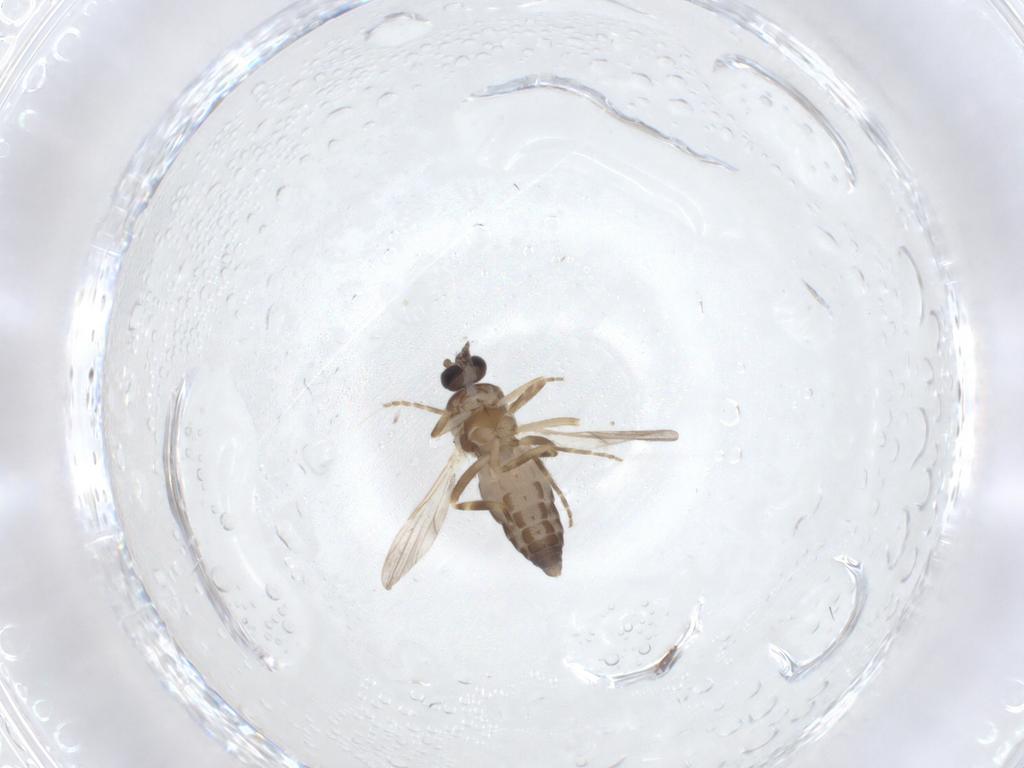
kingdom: Animalia
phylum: Arthropoda
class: Insecta
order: Diptera
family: Ceratopogonidae
